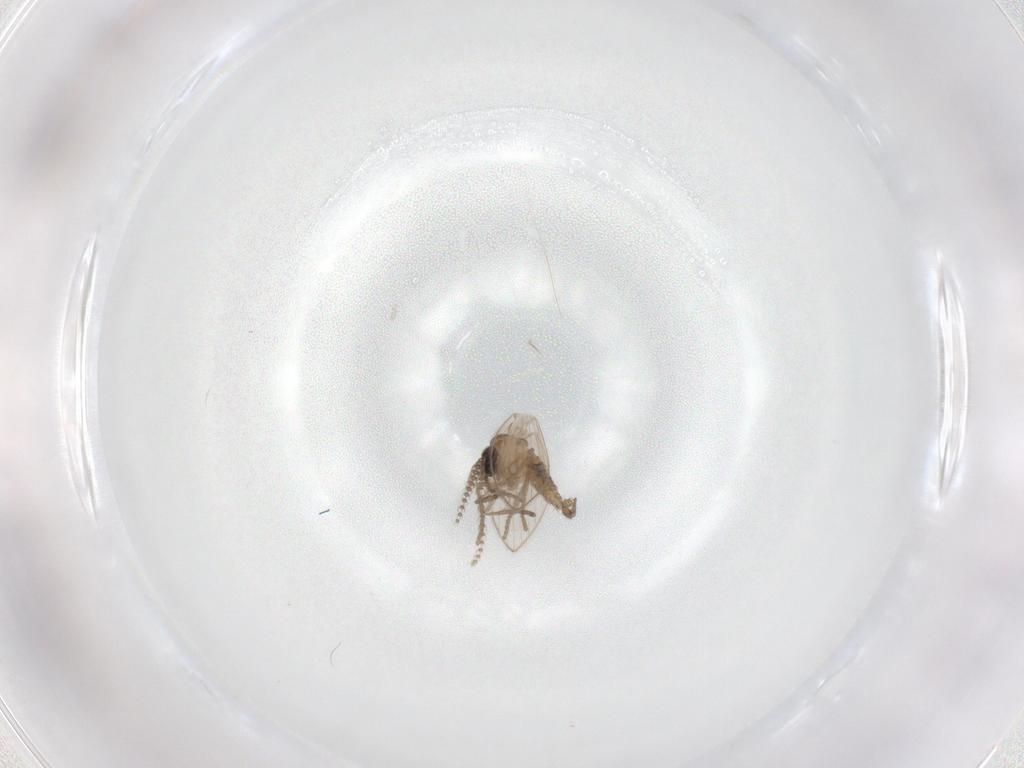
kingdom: Animalia
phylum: Arthropoda
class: Insecta
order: Diptera
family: Psychodidae
